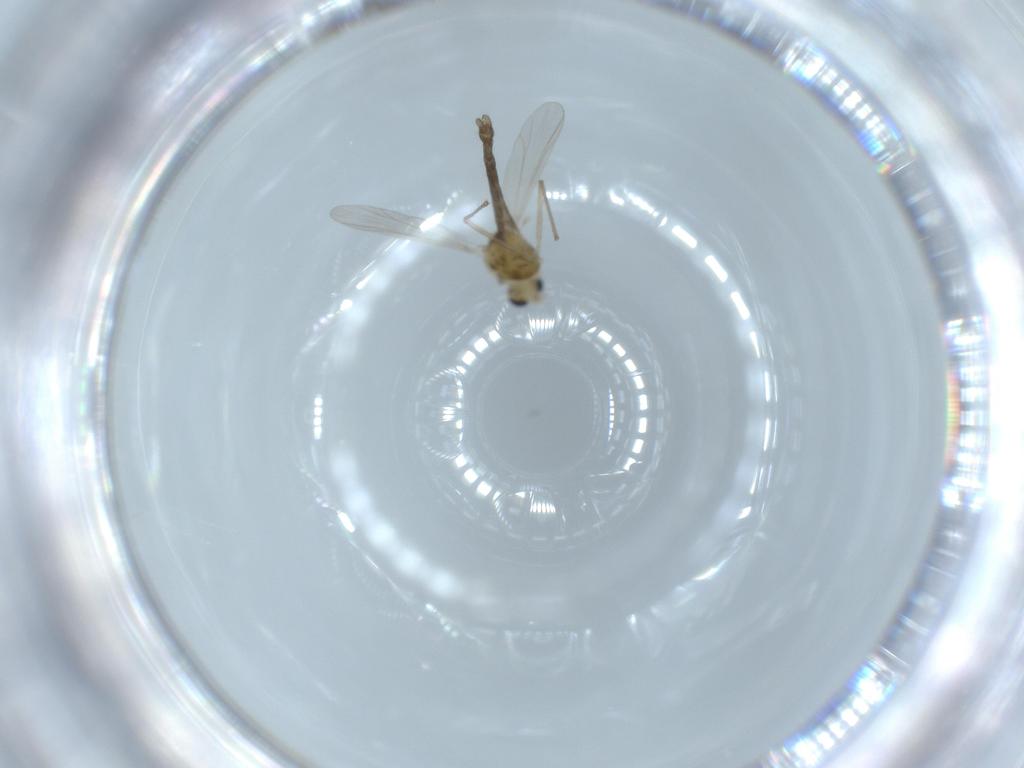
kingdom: Animalia
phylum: Arthropoda
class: Insecta
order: Diptera
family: Chironomidae
